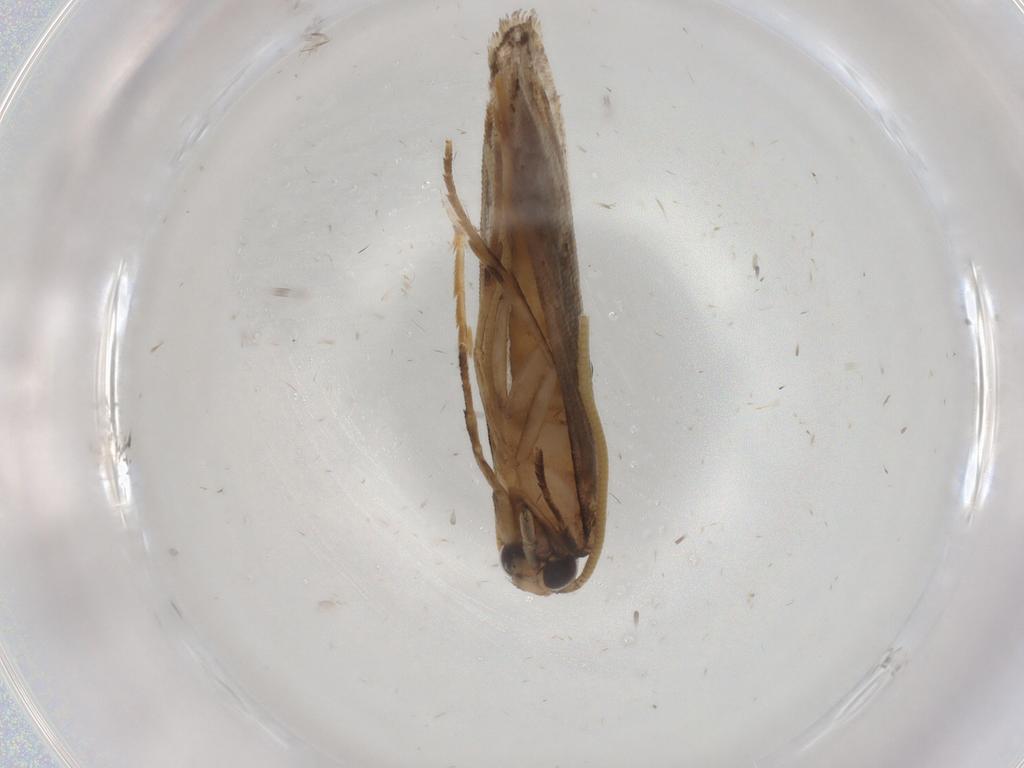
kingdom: Animalia
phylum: Arthropoda
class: Insecta
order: Lepidoptera
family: Tineidae
